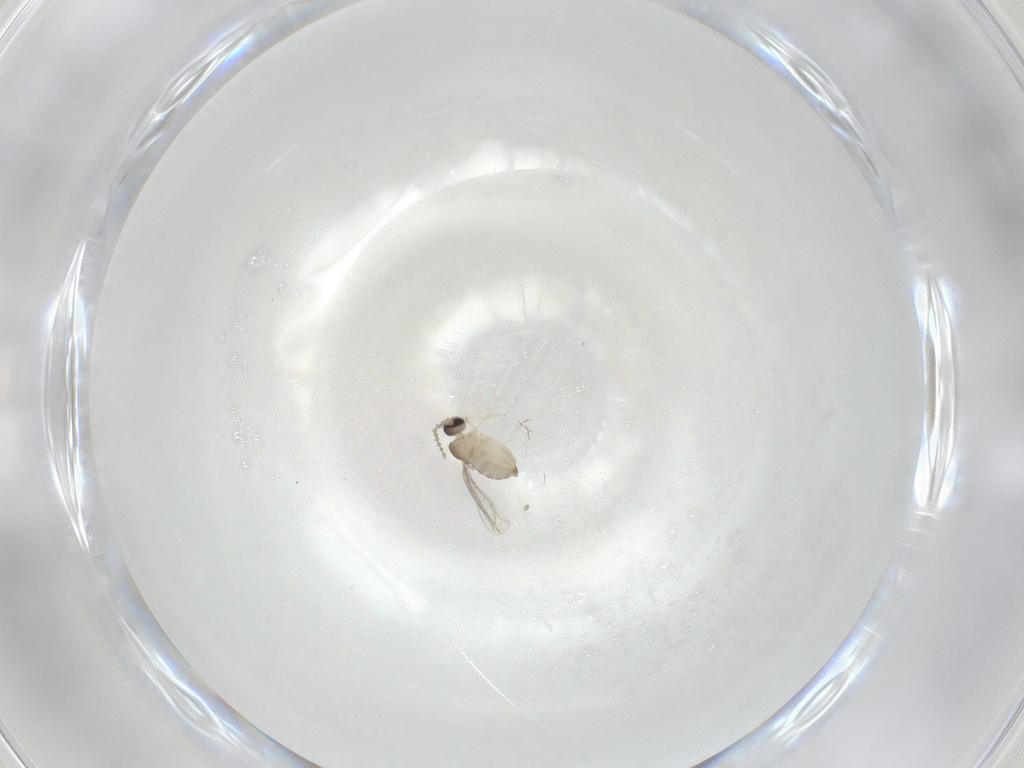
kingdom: Animalia
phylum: Arthropoda
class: Insecta
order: Diptera
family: Cecidomyiidae
